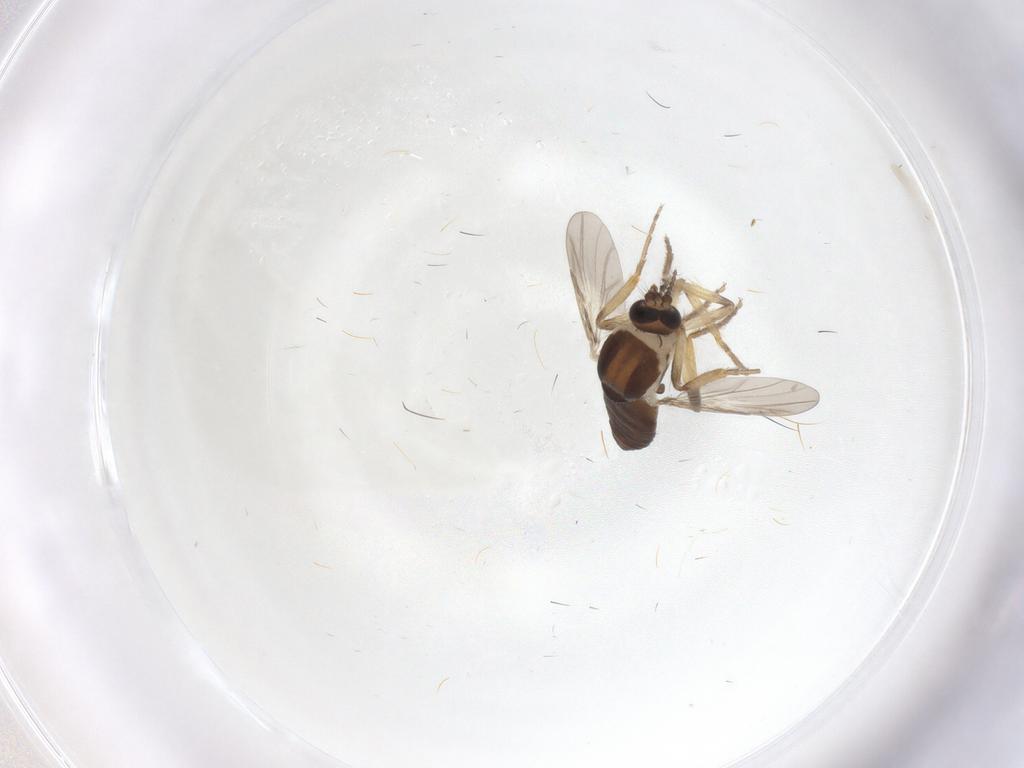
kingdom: Animalia
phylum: Arthropoda
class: Insecta
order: Diptera
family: Ceratopogonidae
